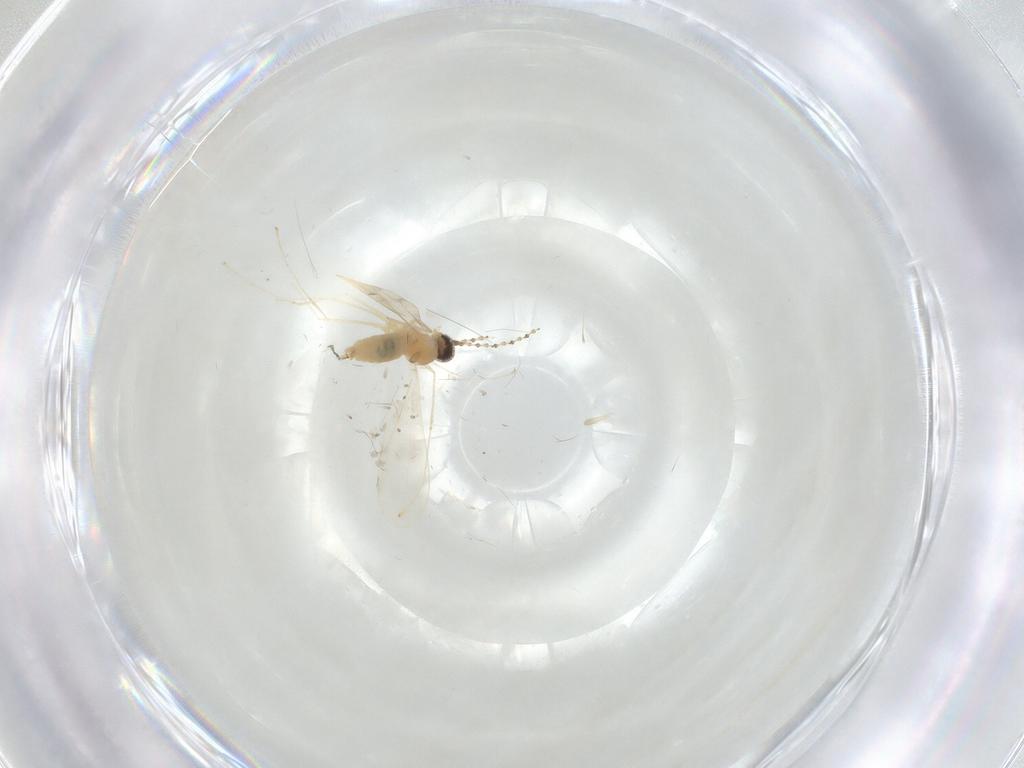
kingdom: Animalia
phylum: Arthropoda
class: Insecta
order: Diptera
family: Cecidomyiidae
